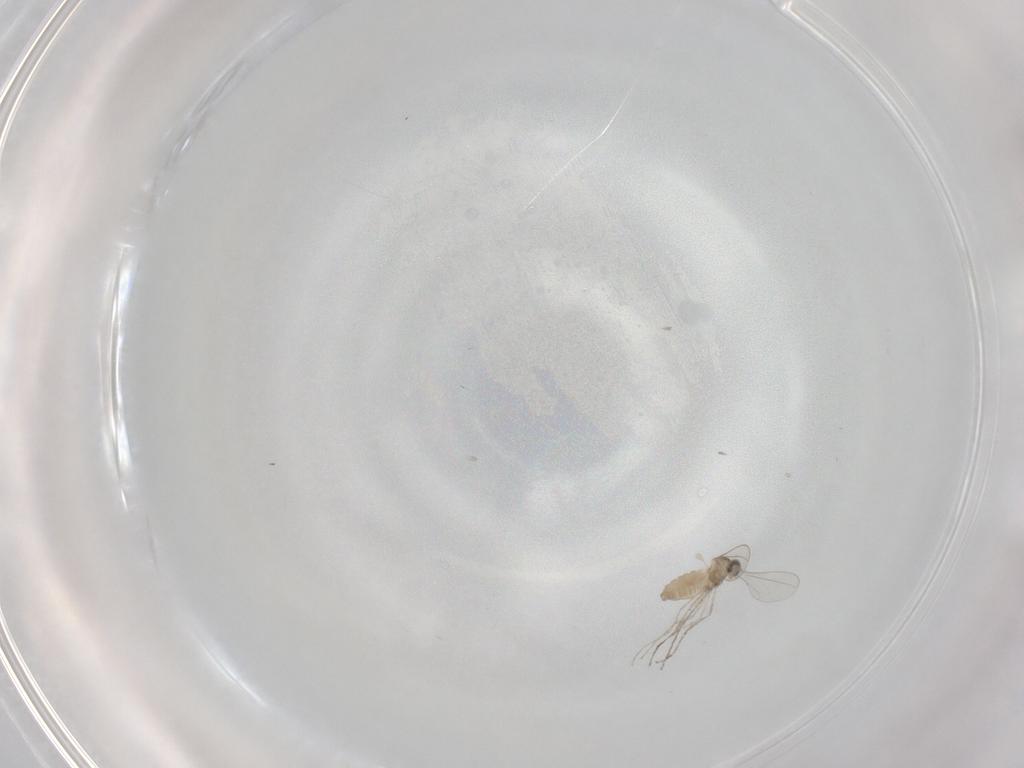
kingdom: Animalia
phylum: Arthropoda
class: Insecta
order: Diptera
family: Cecidomyiidae
